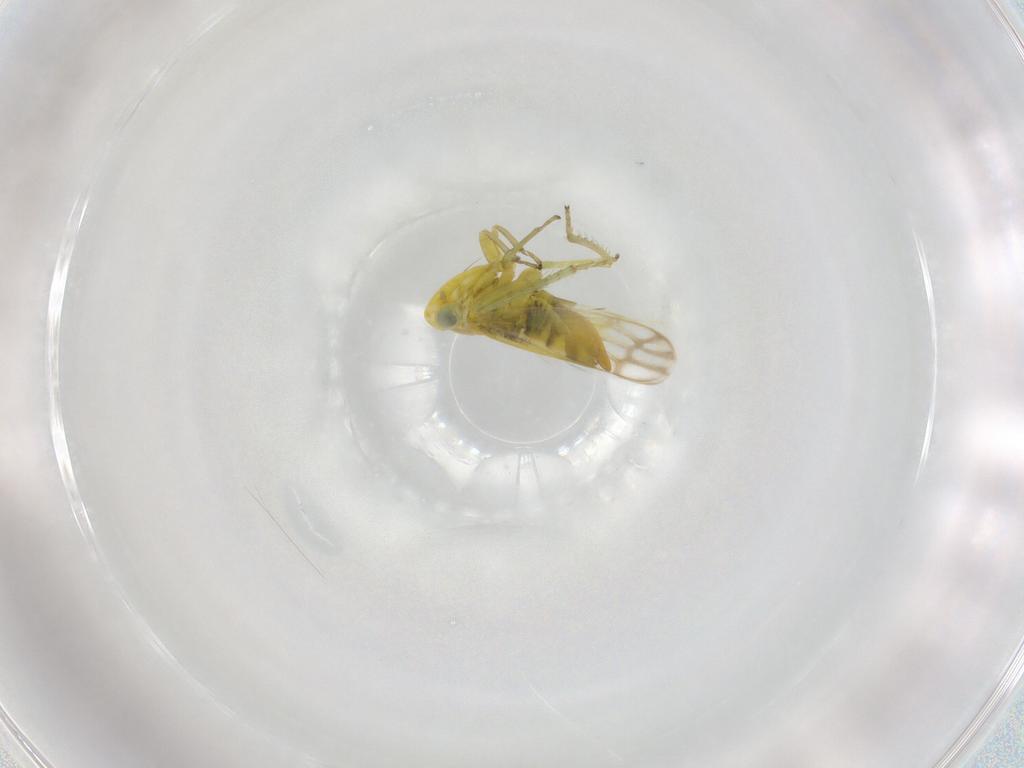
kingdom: Animalia
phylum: Arthropoda
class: Insecta
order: Hemiptera
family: Cicadellidae
